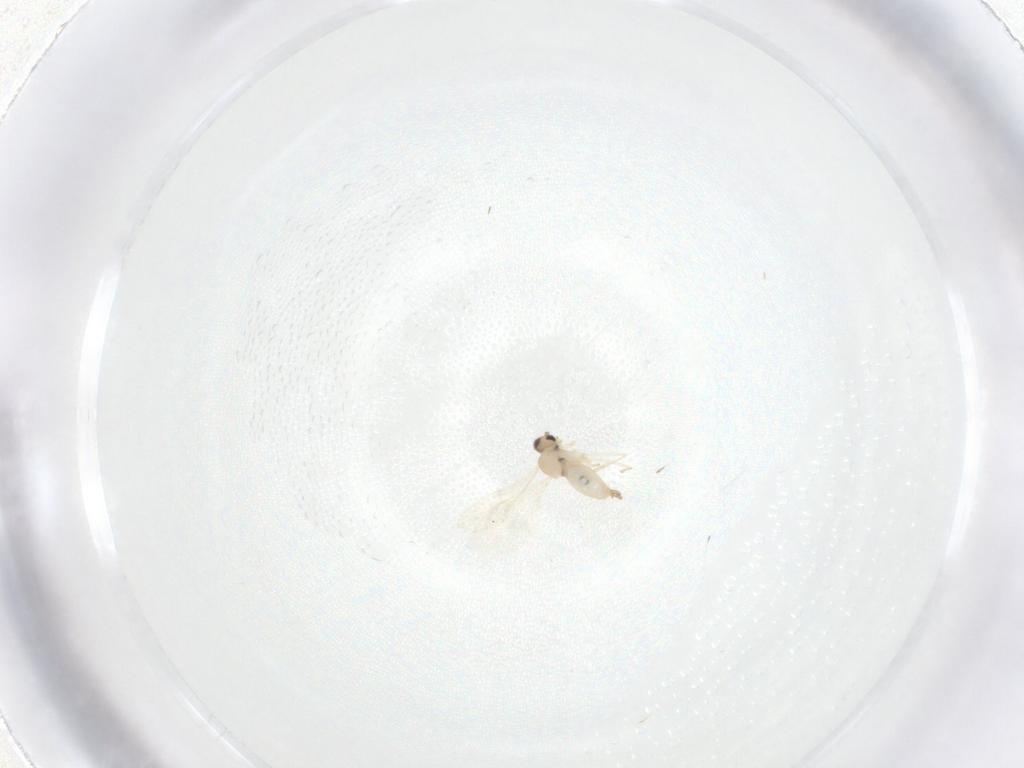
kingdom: Animalia
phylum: Arthropoda
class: Insecta
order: Diptera
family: Cecidomyiidae
